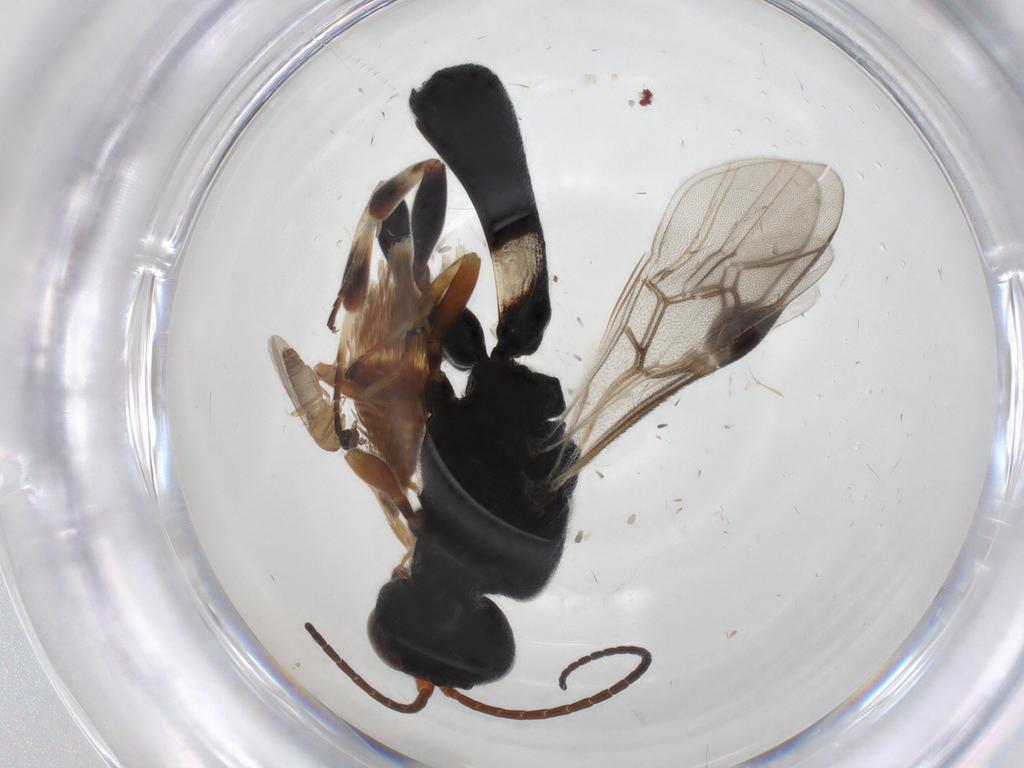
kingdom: Animalia
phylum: Arthropoda
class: Insecta
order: Hymenoptera
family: Braconidae
